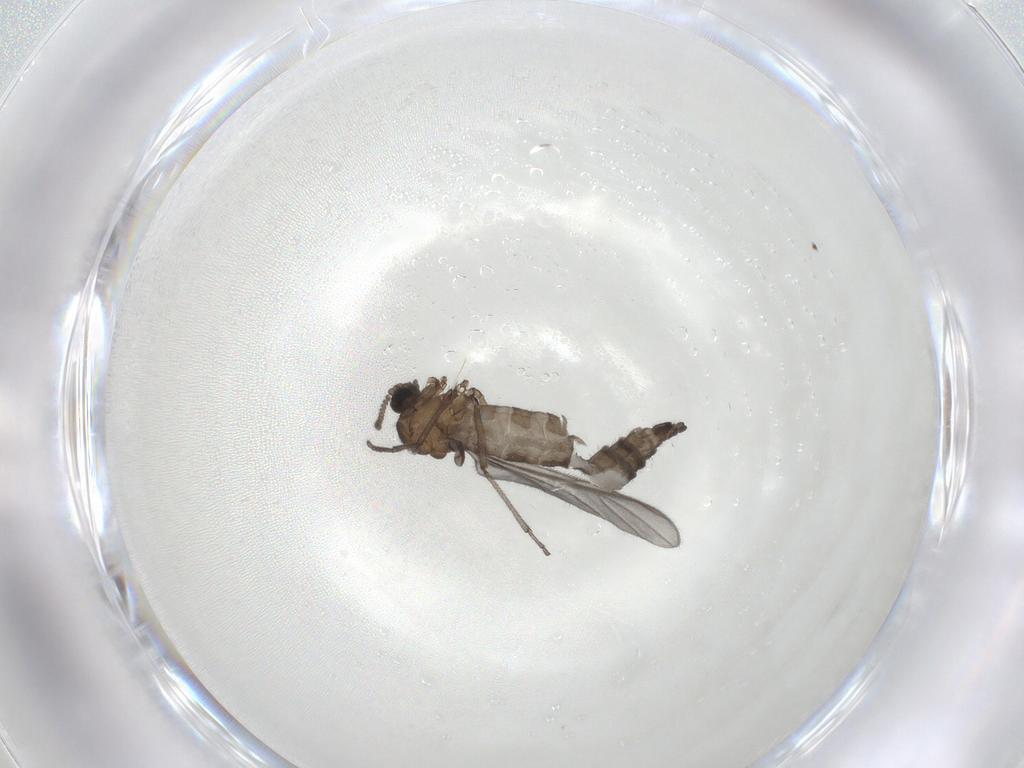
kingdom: Animalia
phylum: Arthropoda
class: Insecta
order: Diptera
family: Sciaridae
